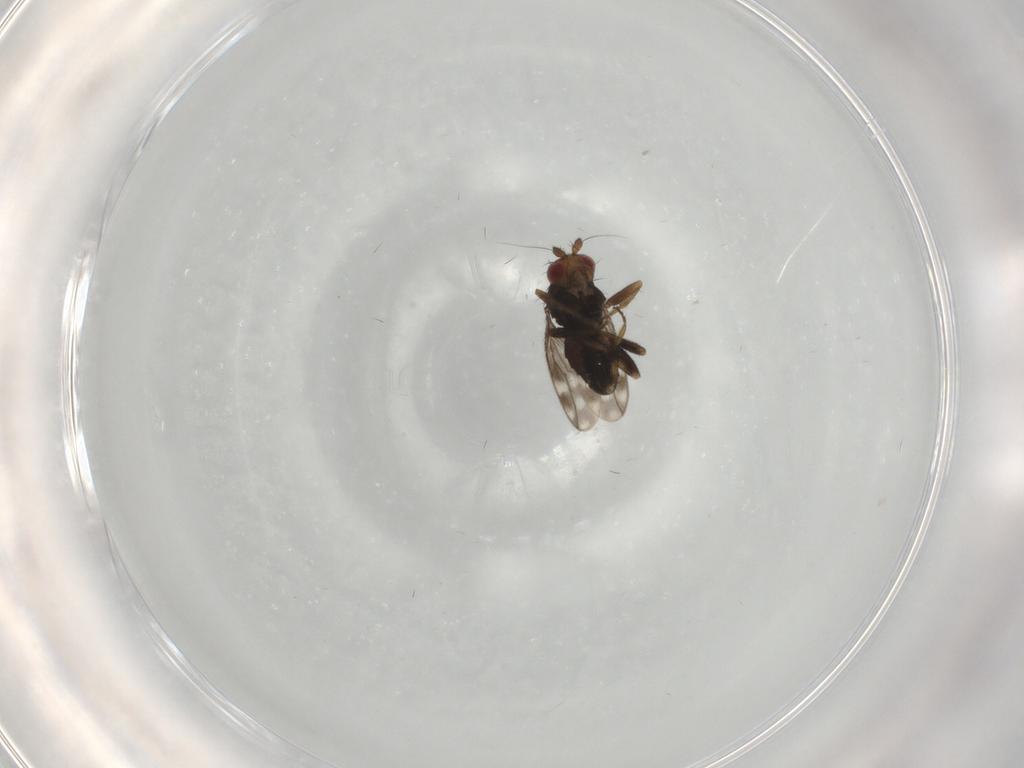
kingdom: Animalia
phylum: Arthropoda
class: Insecta
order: Diptera
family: Sphaeroceridae
